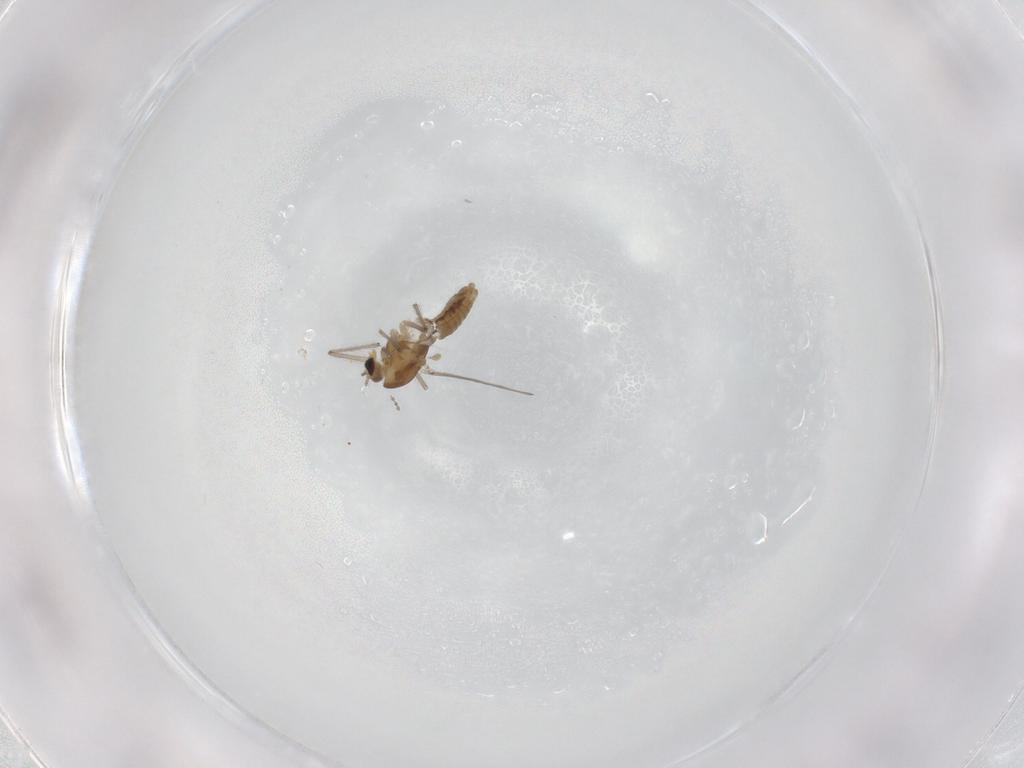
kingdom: Animalia
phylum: Arthropoda
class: Insecta
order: Diptera
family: Chironomidae
